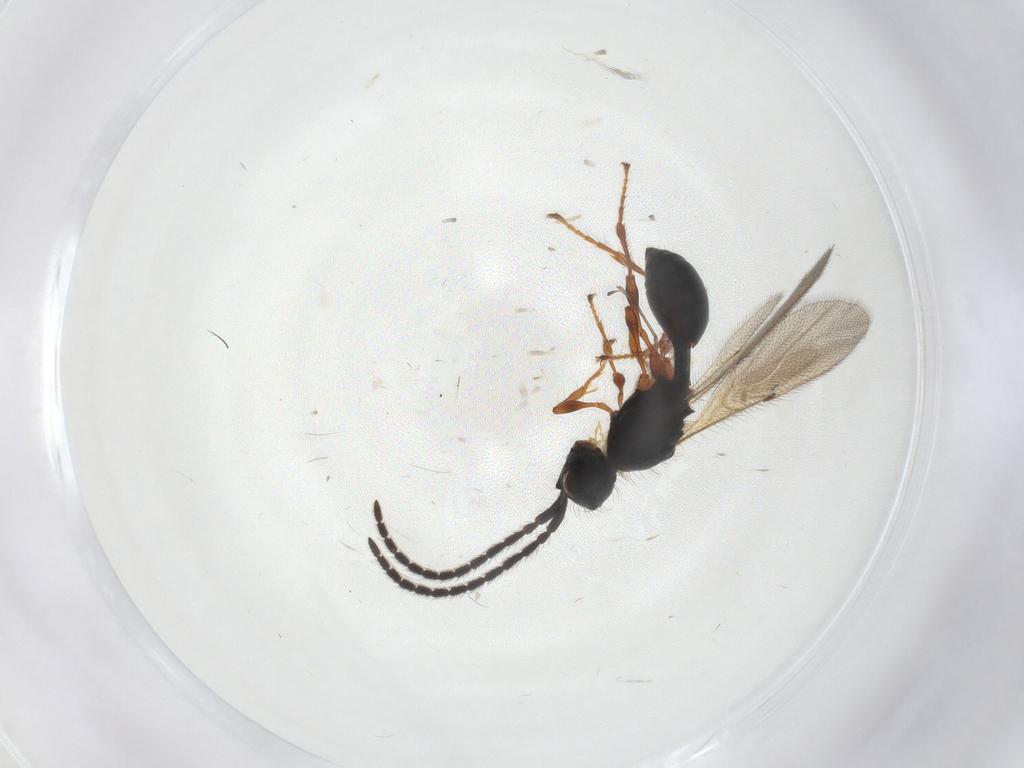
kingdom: Animalia
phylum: Arthropoda
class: Insecta
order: Hymenoptera
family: Diapriidae
